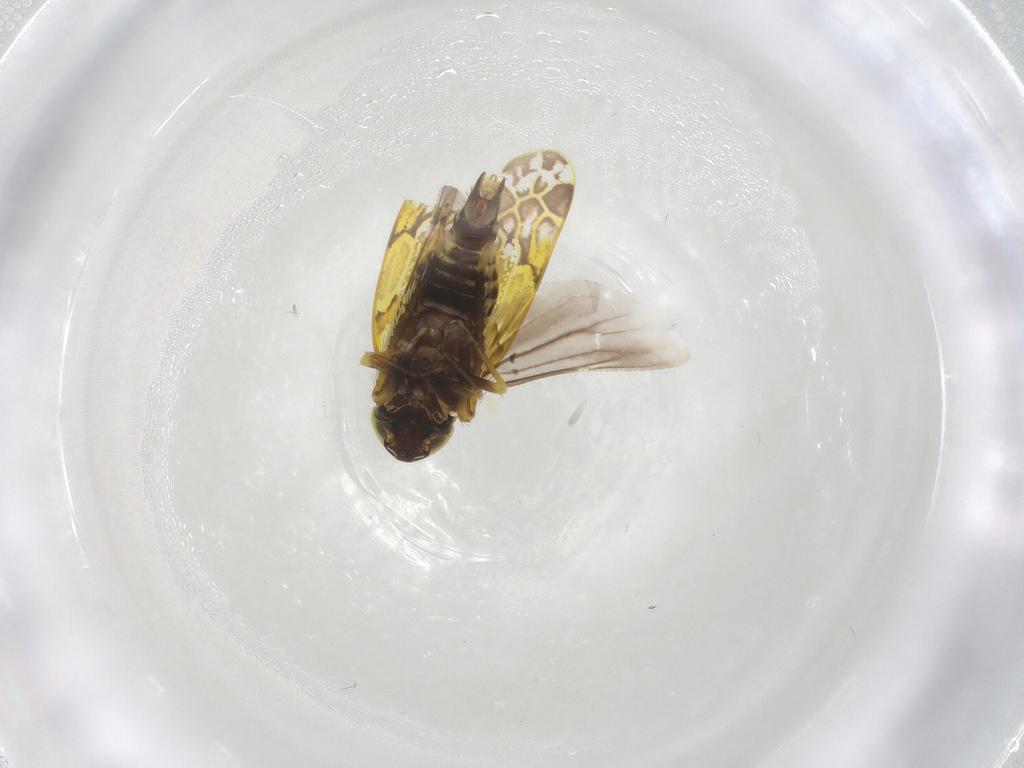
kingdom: Animalia
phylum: Arthropoda
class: Insecta
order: Hemiptera
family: Cicadellidae
